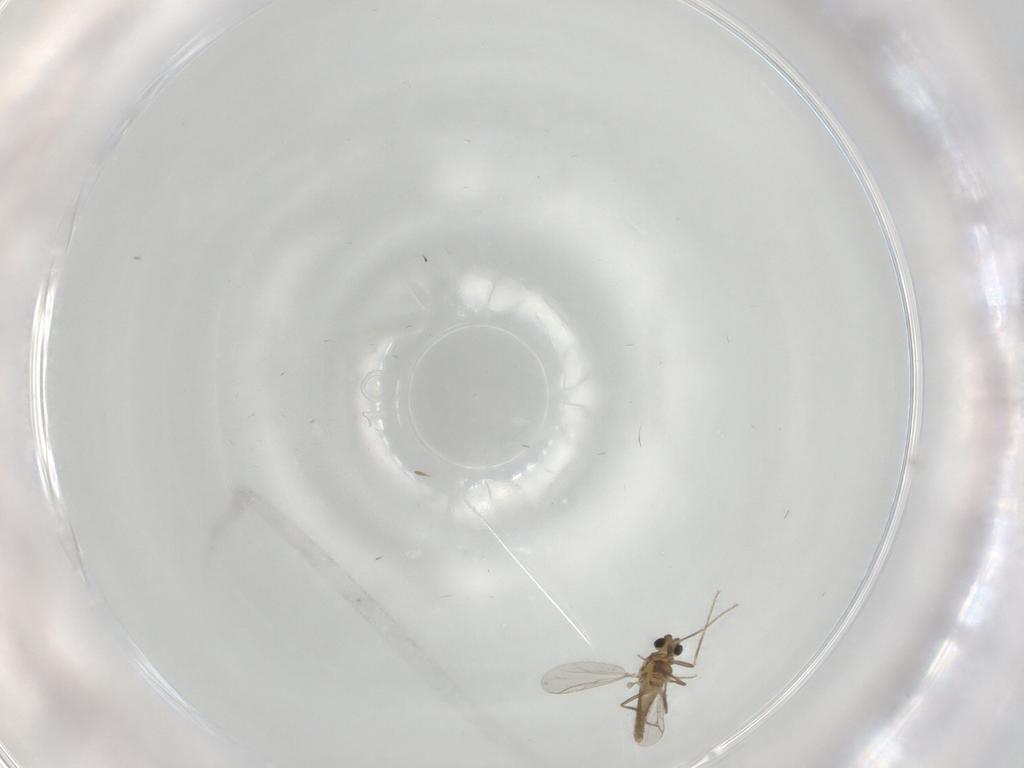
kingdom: Animalia
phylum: Arthropoda
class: Insecta
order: Diptera
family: Chironomidae
